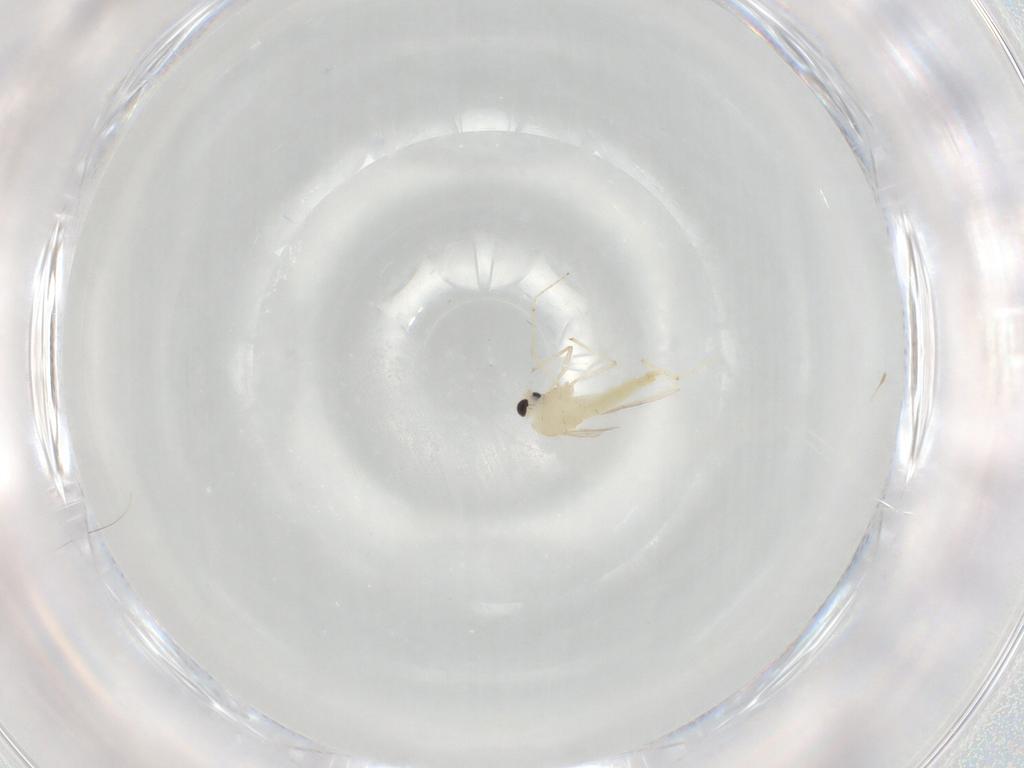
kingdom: Animalia
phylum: Arthropoda
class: Insecta
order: Diptera
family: Chironomidae
